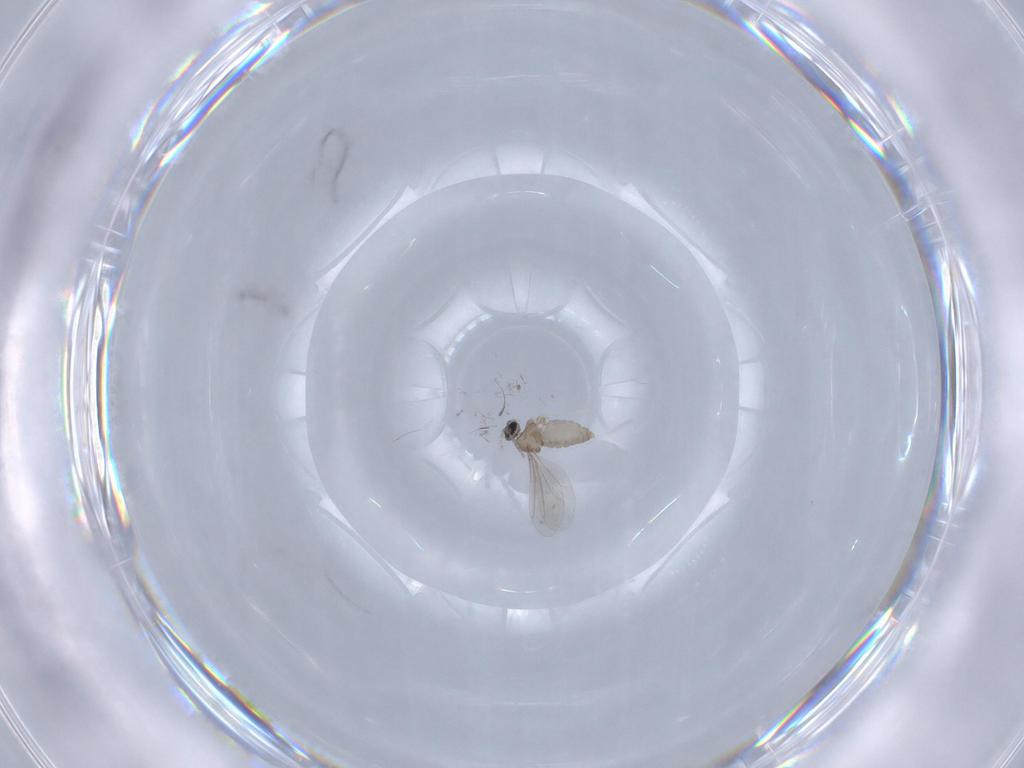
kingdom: Animalia
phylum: Arthropoda
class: Insecta
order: Diptera
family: Cecidomyiidae
